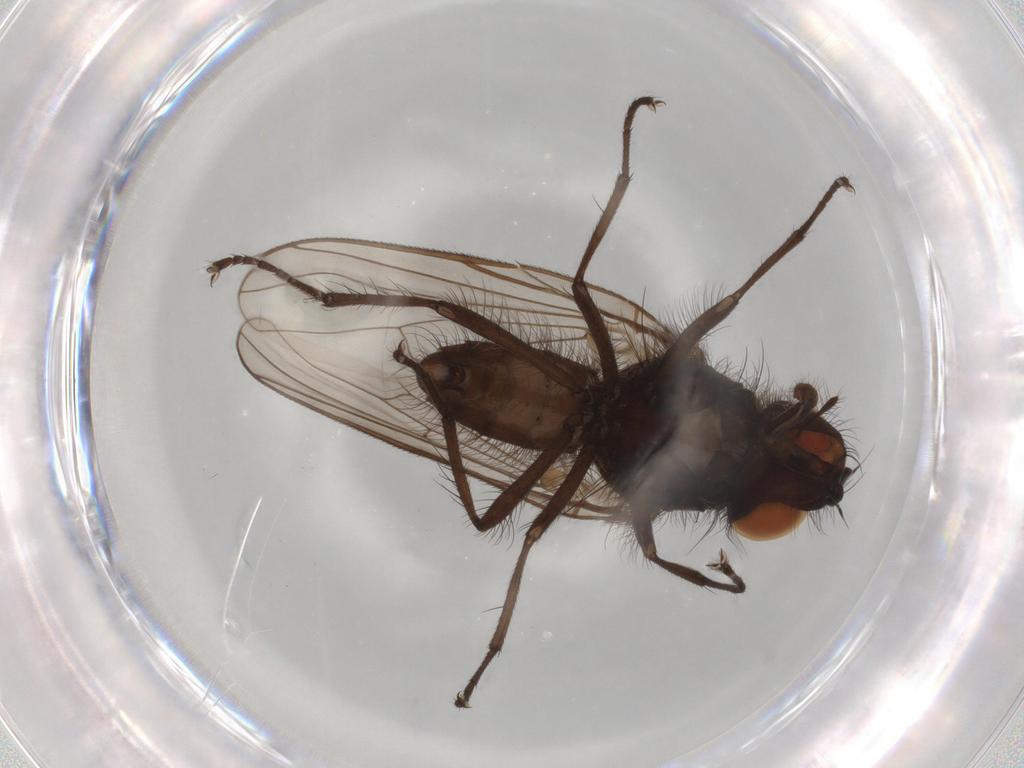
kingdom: Animalia
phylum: Arthropoda
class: Insecta
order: Diptera
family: Anthomyiidae
